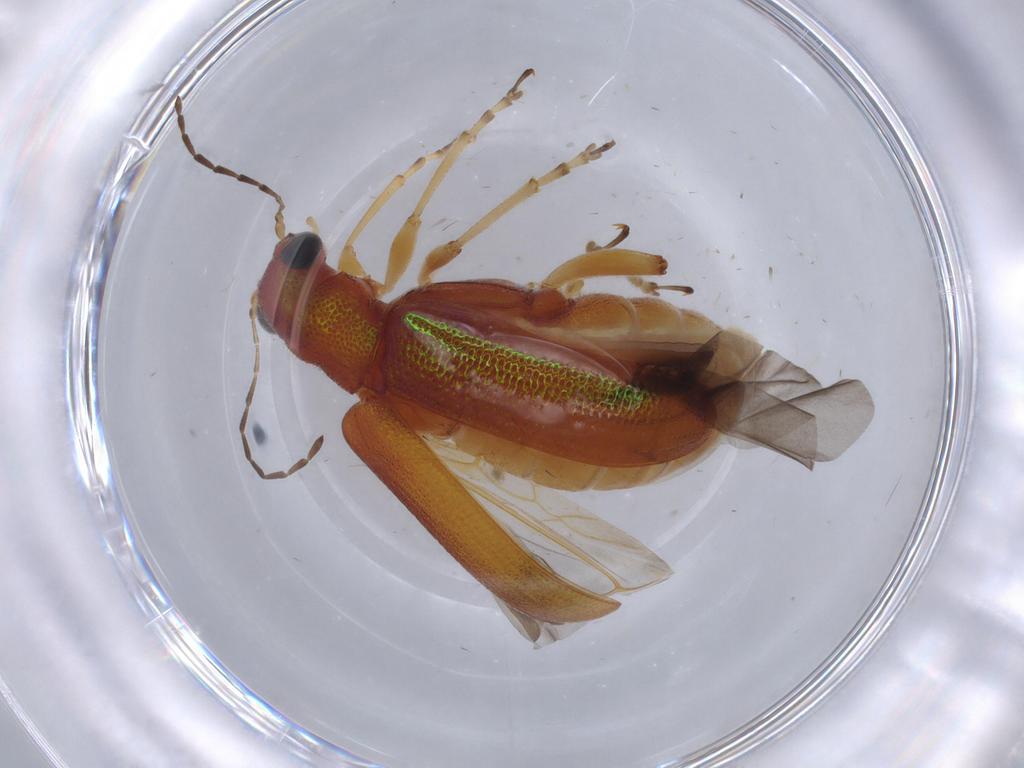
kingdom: Animalia
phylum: Arthropoda
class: Insecta
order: Coleoptera
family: Chrysomelidae
